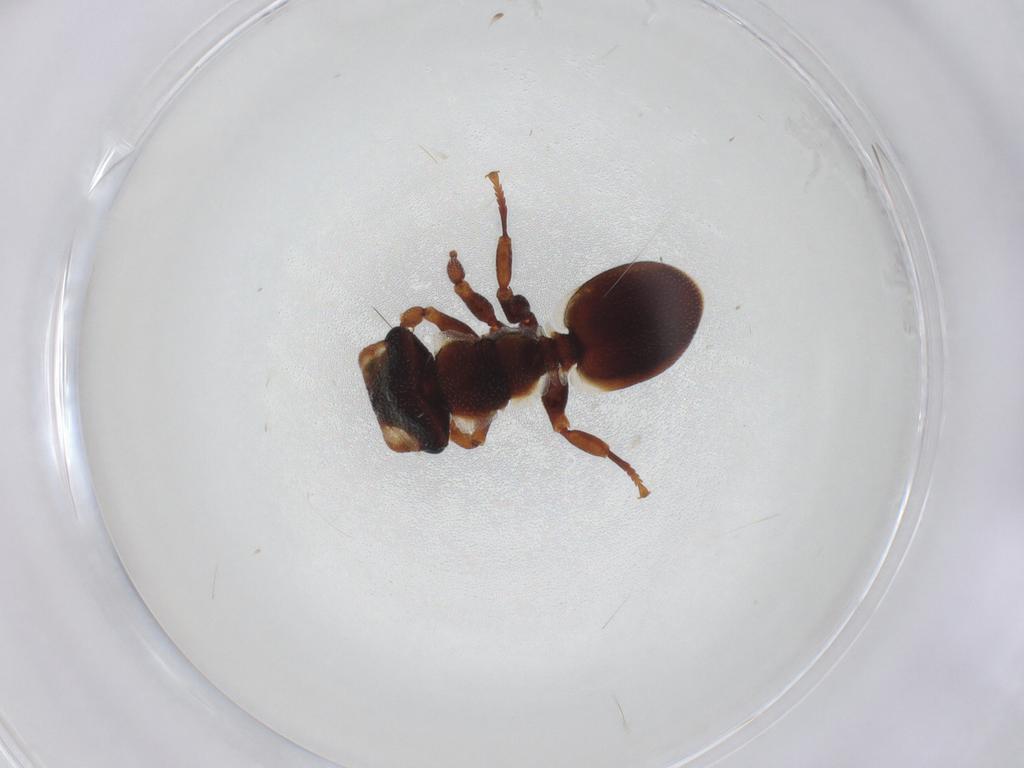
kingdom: Animalia
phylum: Arthropoda
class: Insecta
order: Hymenoptera
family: Formicidae
